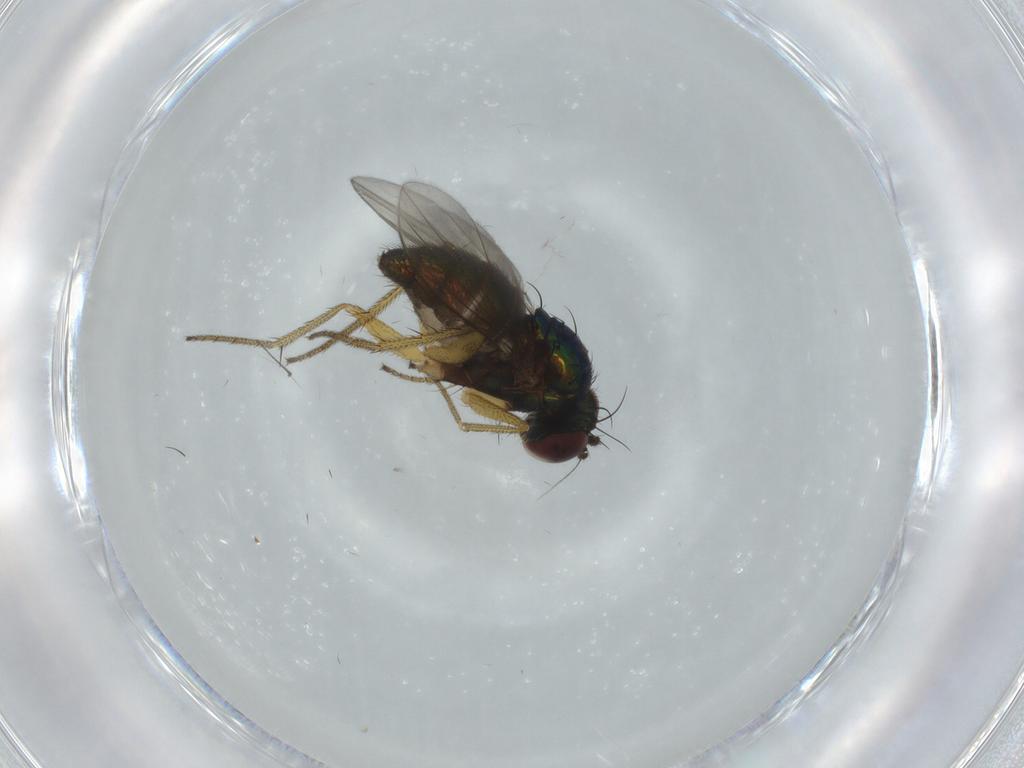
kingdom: Animalia
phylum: Arthropoda
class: Insecta
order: Diptera
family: Dolichopodidae
